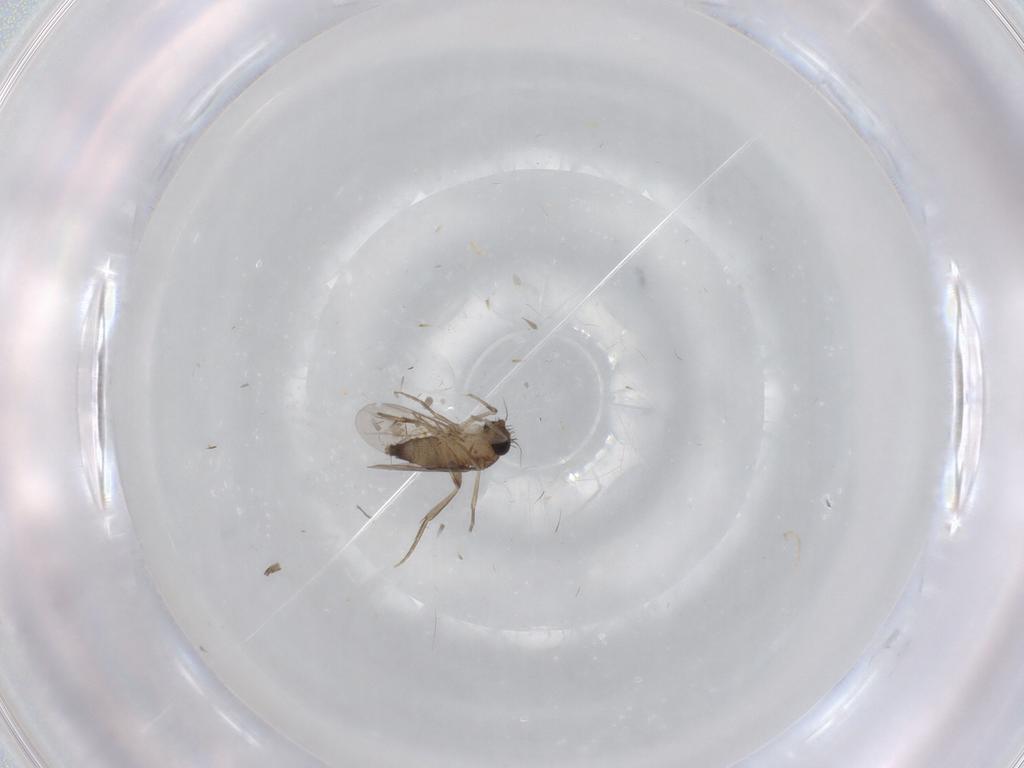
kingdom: Animalia
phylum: Arthropoda
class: Insecta
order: Diptera
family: Phoridae
